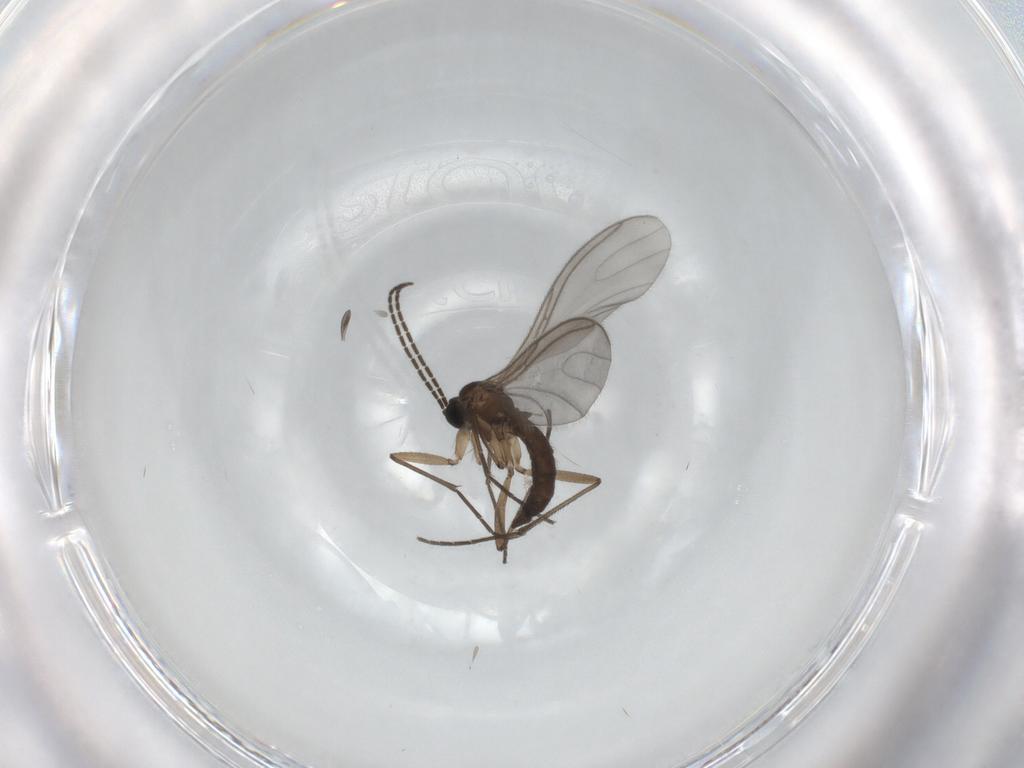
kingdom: Animalia
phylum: Arthropoda
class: Insecta
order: Diptera
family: Sciaridae
